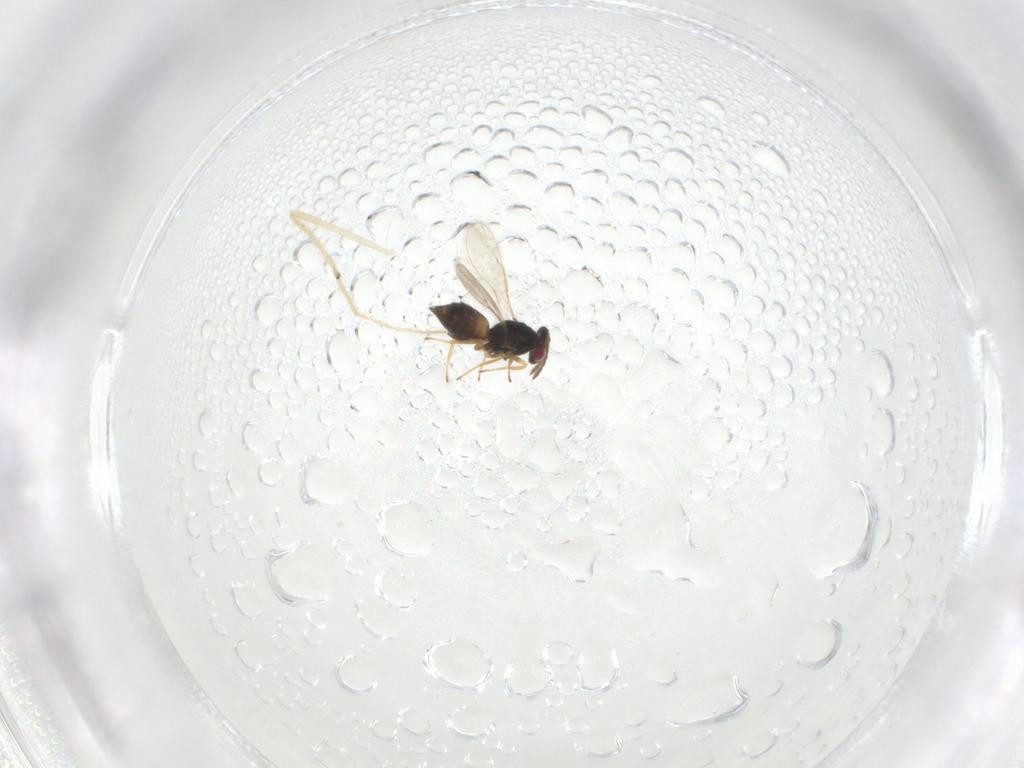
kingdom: Animalia
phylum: Arthropoda
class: Insecta
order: Hymenoptera
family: Eulophidae
